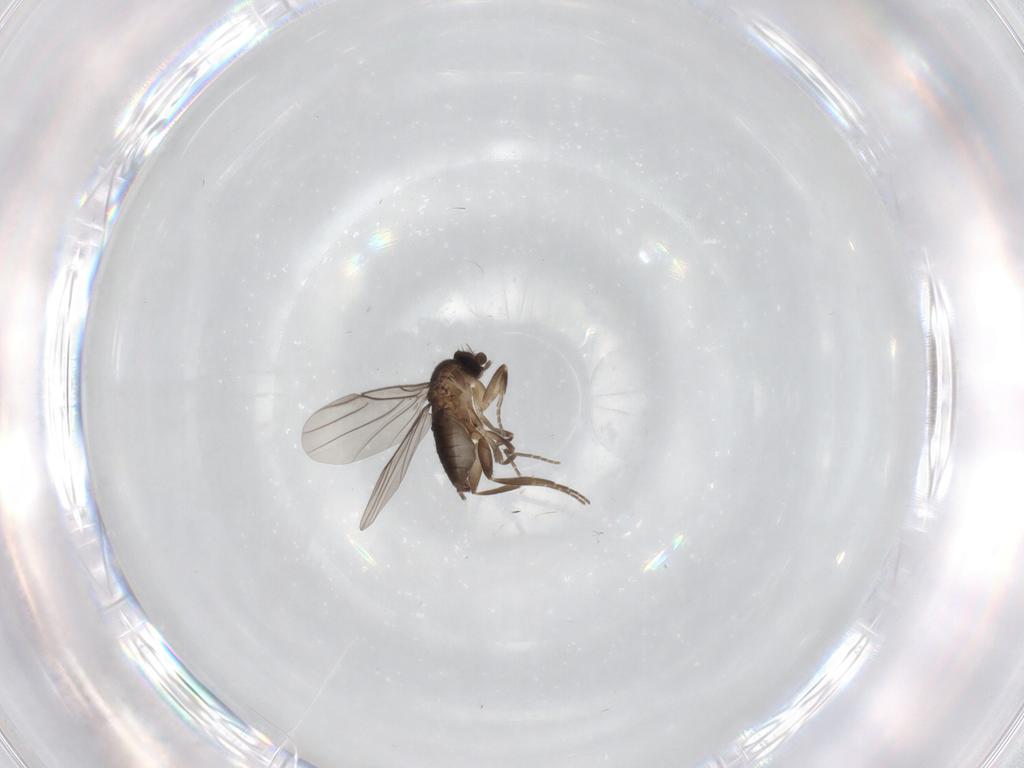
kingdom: Animalia
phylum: Arthropoda
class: Insecta
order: Diptera
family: Phoridae
